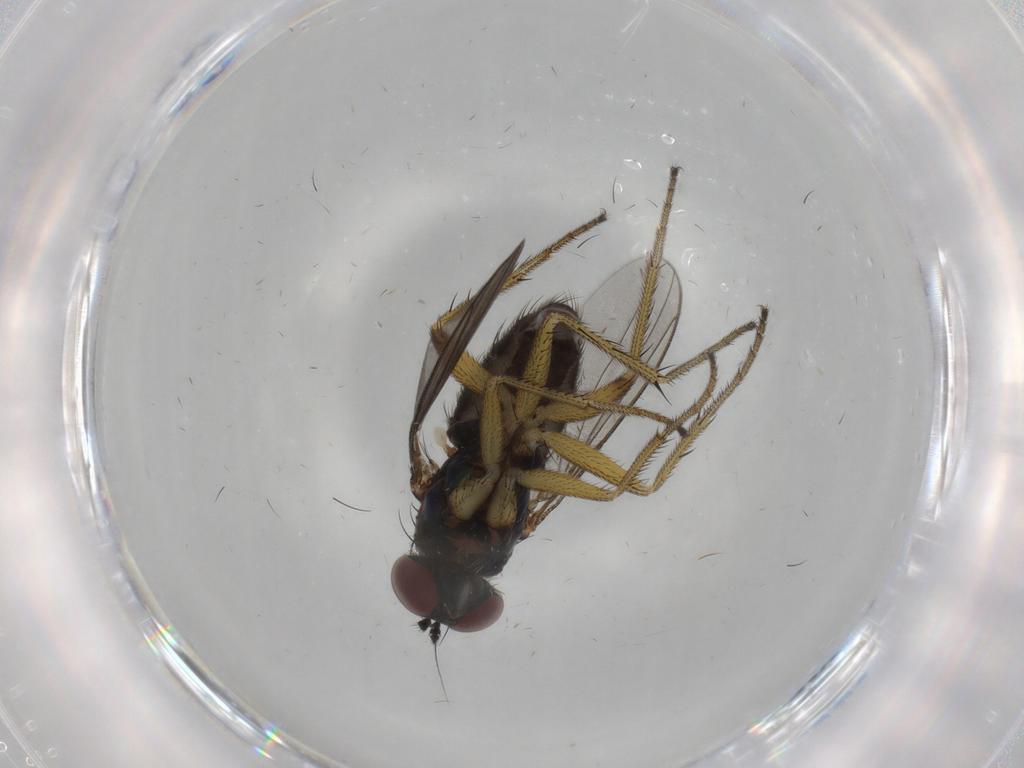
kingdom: Animalia
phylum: Arthropoda
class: Insecta
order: Diptera
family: Dolichopodidae
